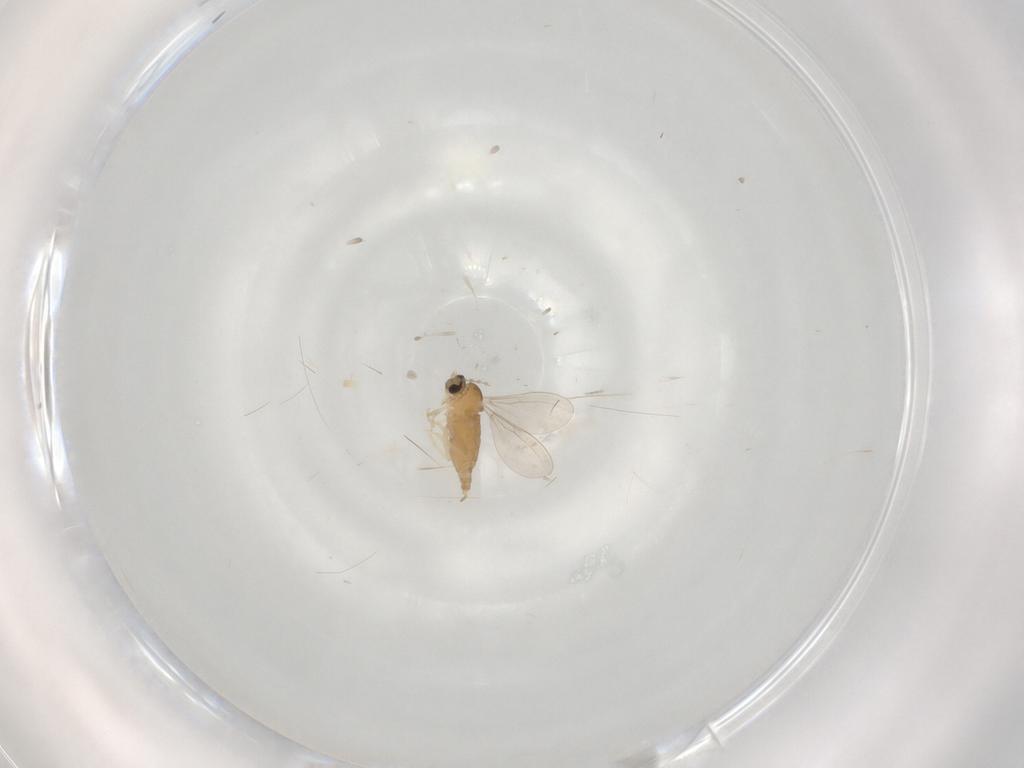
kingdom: Animalia
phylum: Arthropoda
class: Insecta
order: Diptera
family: Cecidomyiidae
